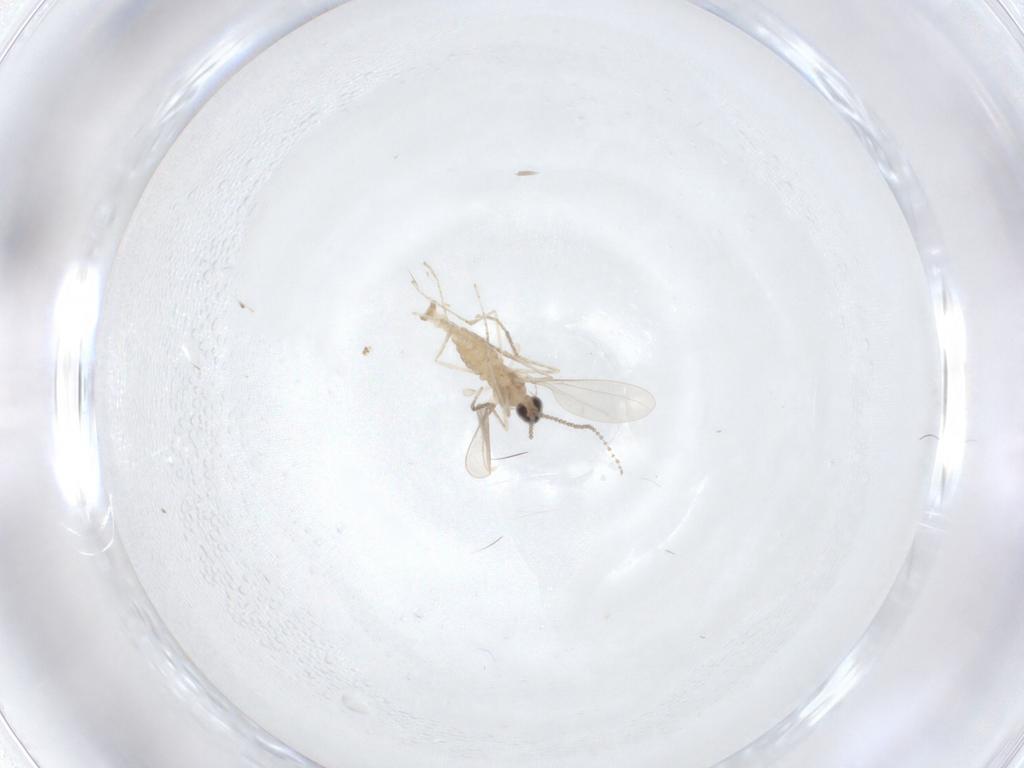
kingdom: Animalia
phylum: Arthropoda
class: Insecta
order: Diptera
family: Cecidomyiidae
